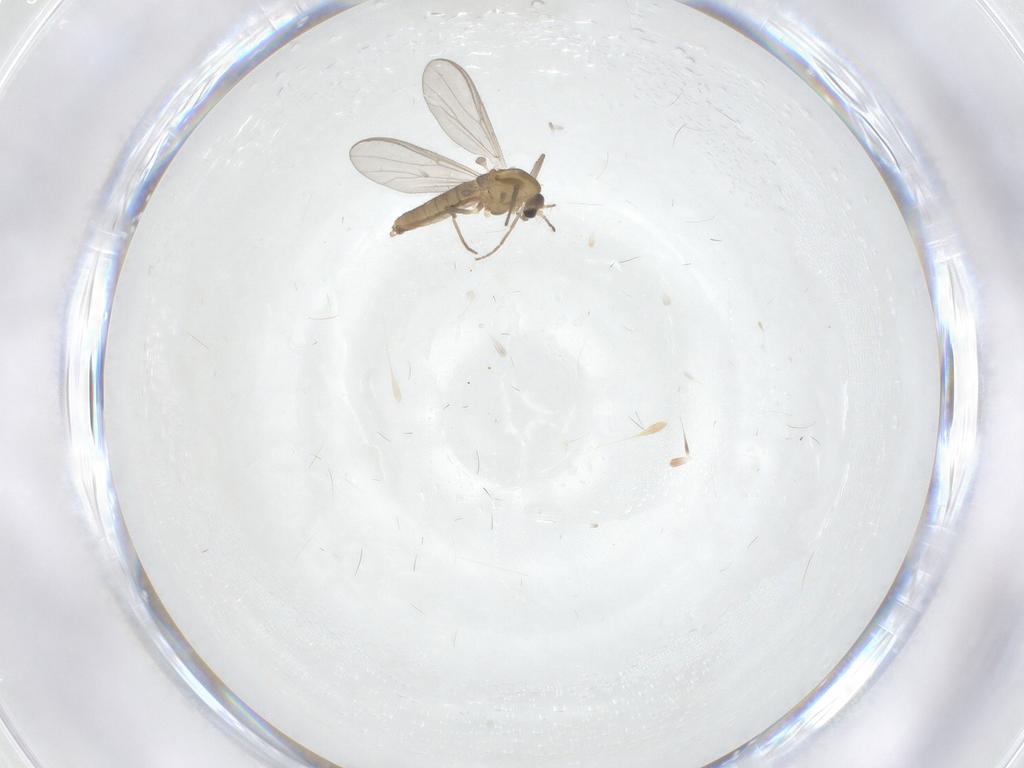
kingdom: Animalia
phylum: Arthropoda
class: Insecta
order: Diptera
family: Chironomidae
